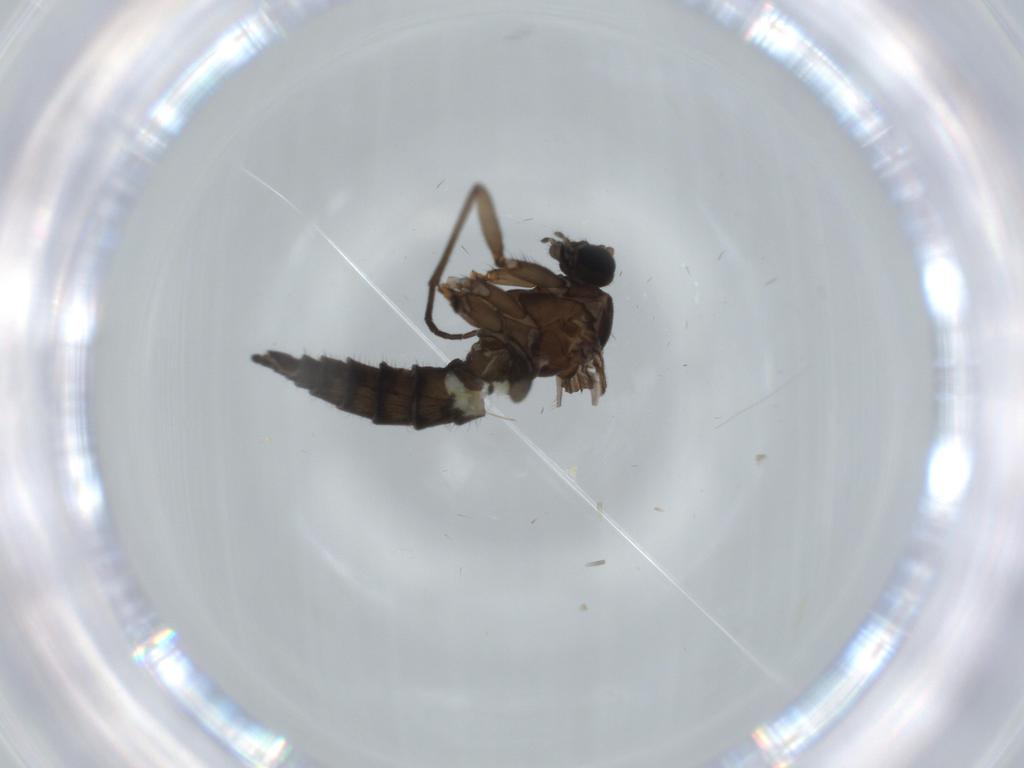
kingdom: Animalia
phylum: Arthropoda
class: Insecta
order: Diptera
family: Sciaridae
